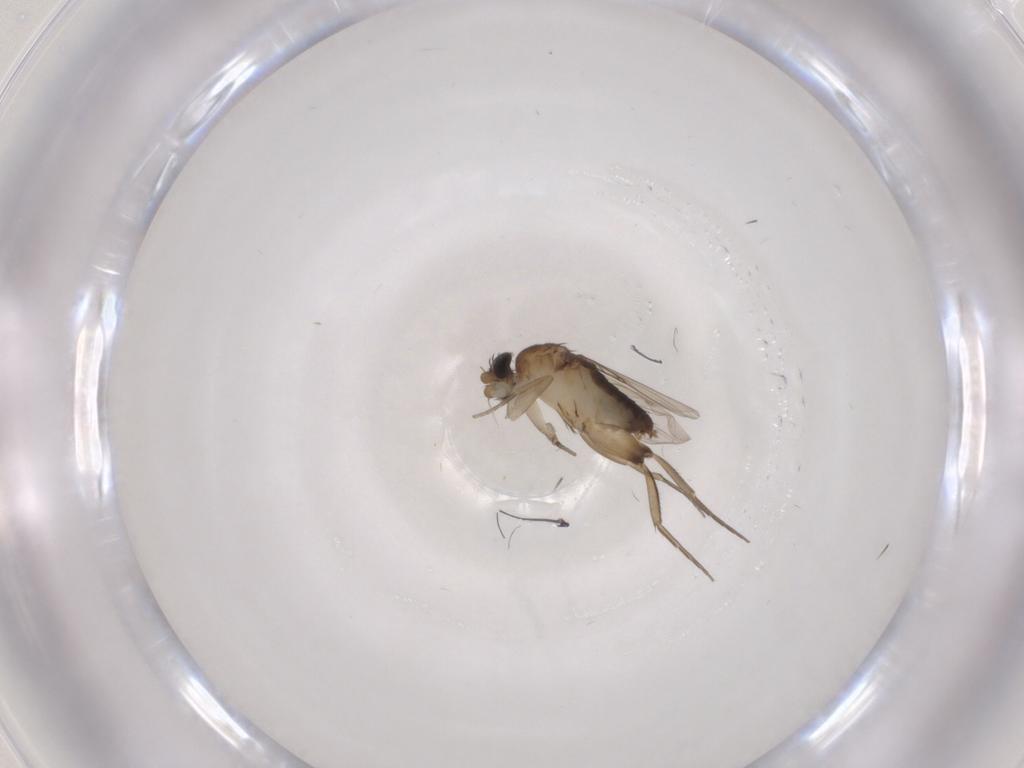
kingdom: Animalia
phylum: Arthropoda
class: Insecta
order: Diptera
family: Phoridae
